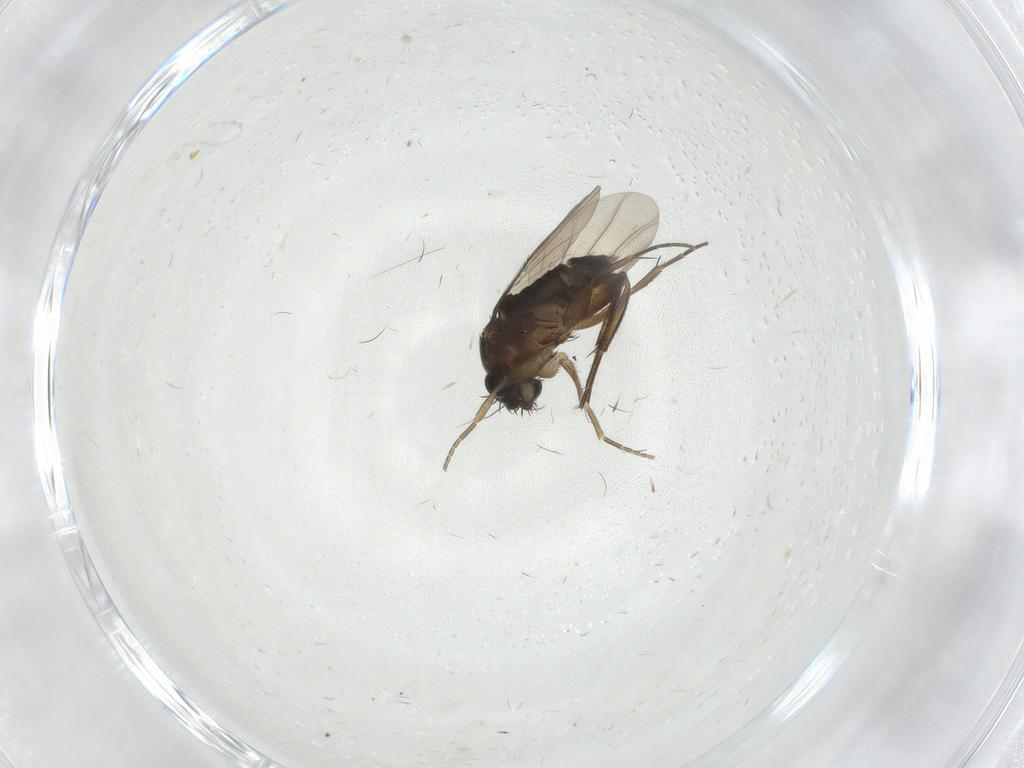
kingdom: Animalia
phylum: Arthropoda
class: Insecta
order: Diptera
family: Phoridae
